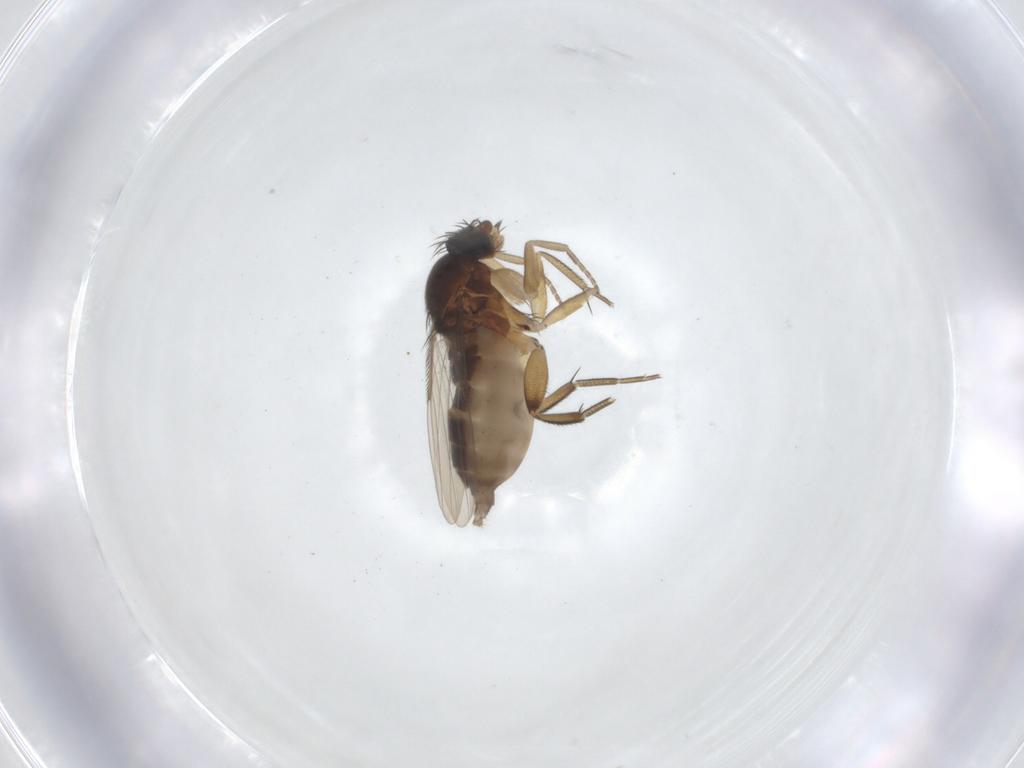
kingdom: Animalia
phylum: Arthropoda
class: Insecta
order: Diptera
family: Phoridae
